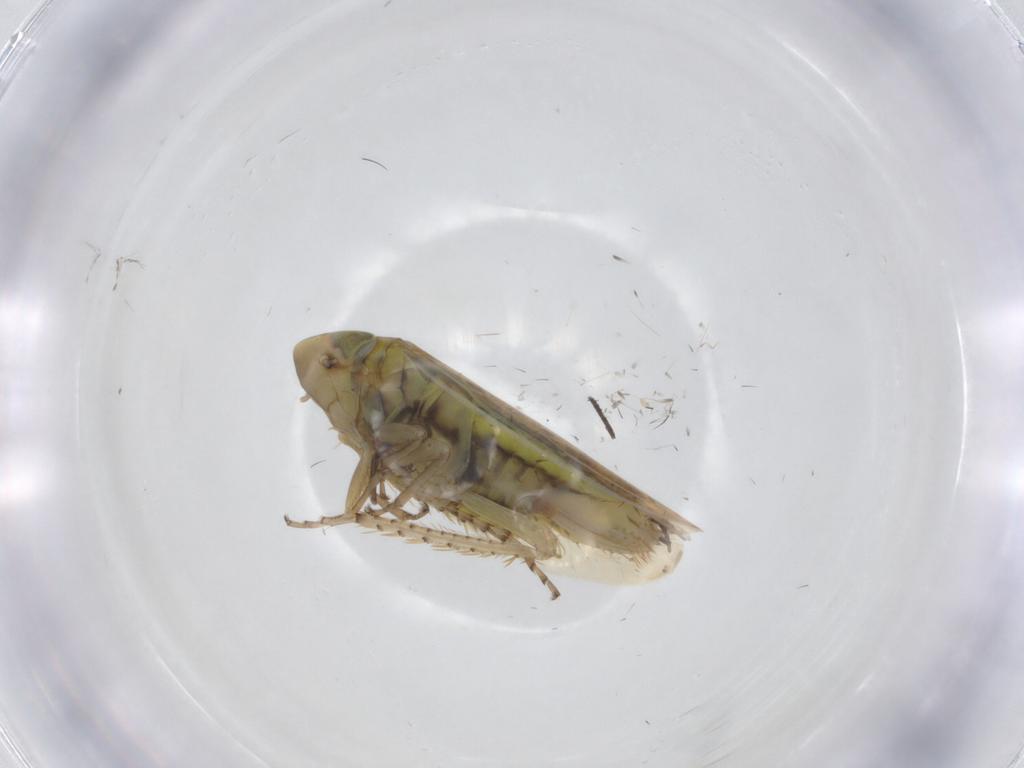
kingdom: Animalia
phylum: Arthropoda
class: Insecta
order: Hemiptera
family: Cicadellidae
